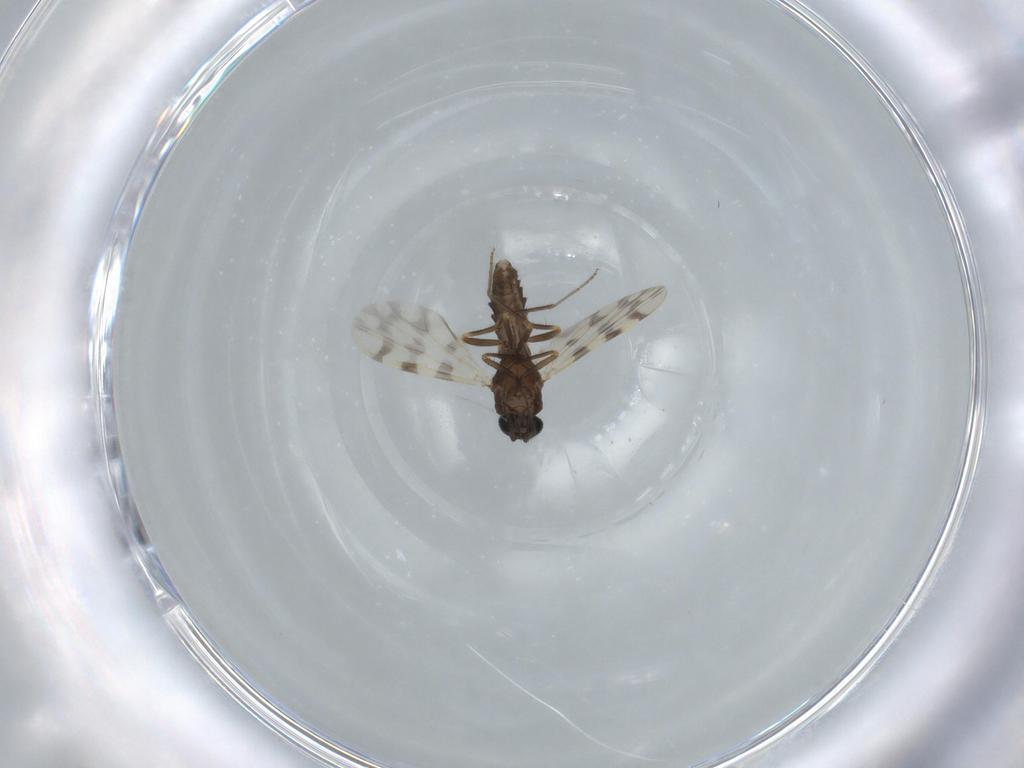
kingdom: Animalia
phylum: Arthropoda
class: Insecta
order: Diptera
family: Ceratopogonidae
